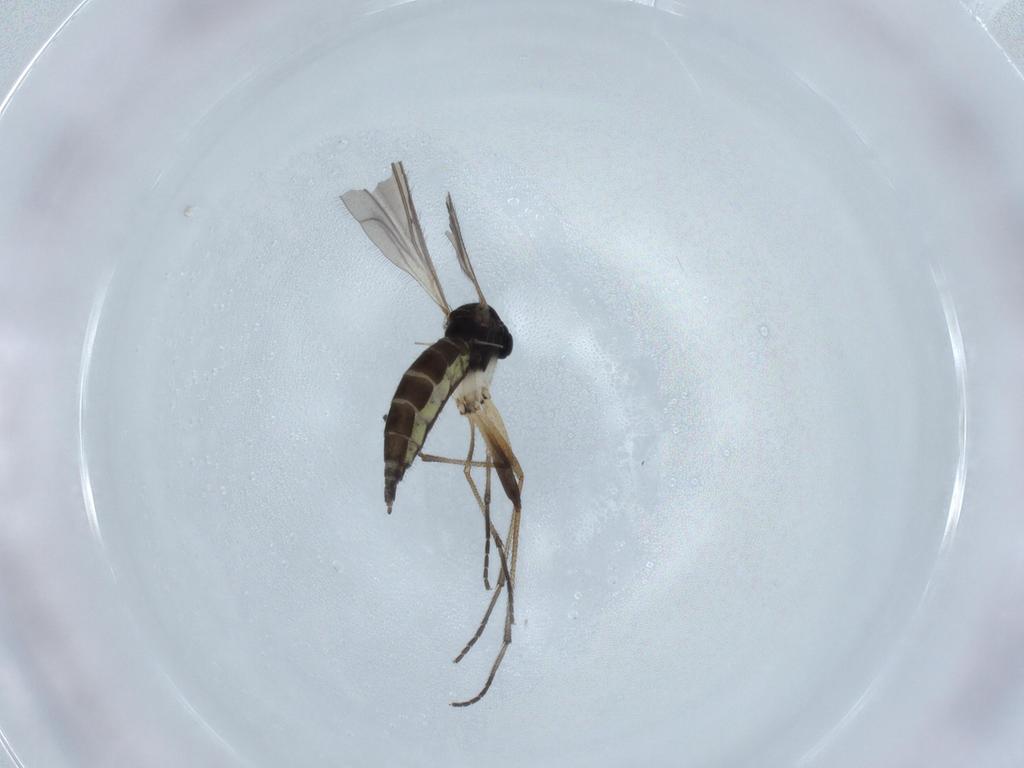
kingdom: Animalia
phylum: Arthropoda
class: Insecta
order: Diptera
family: Sciaridae
